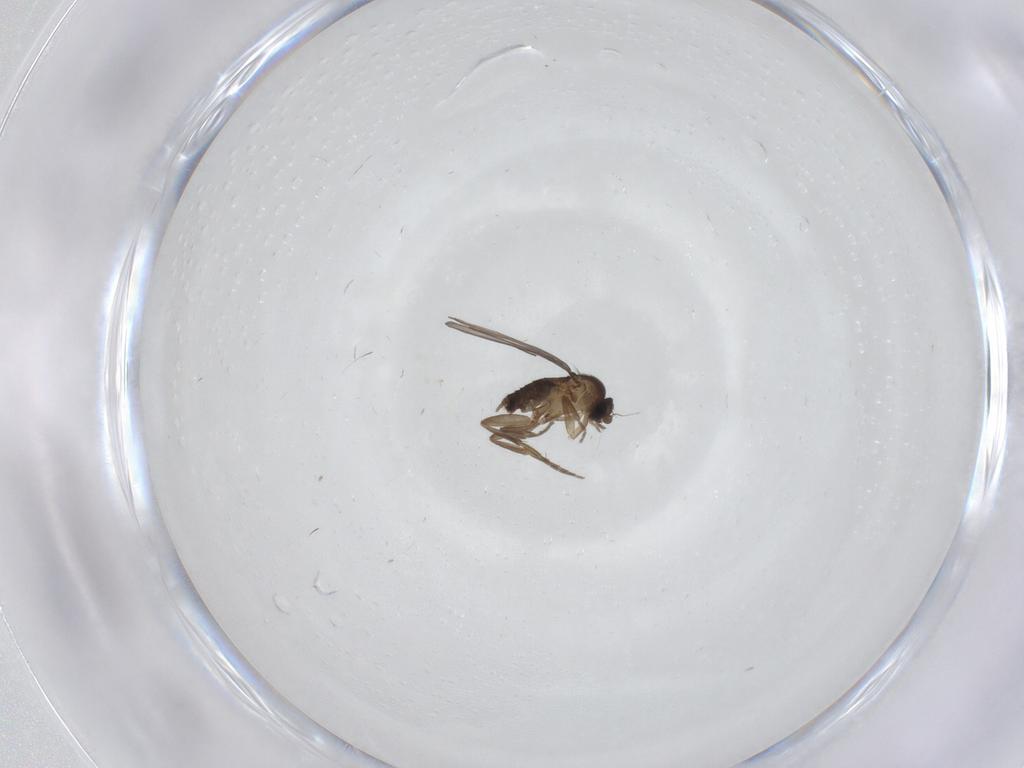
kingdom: Animalia
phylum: Arthropoda
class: Insecta
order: Diptera
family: Phoridae
